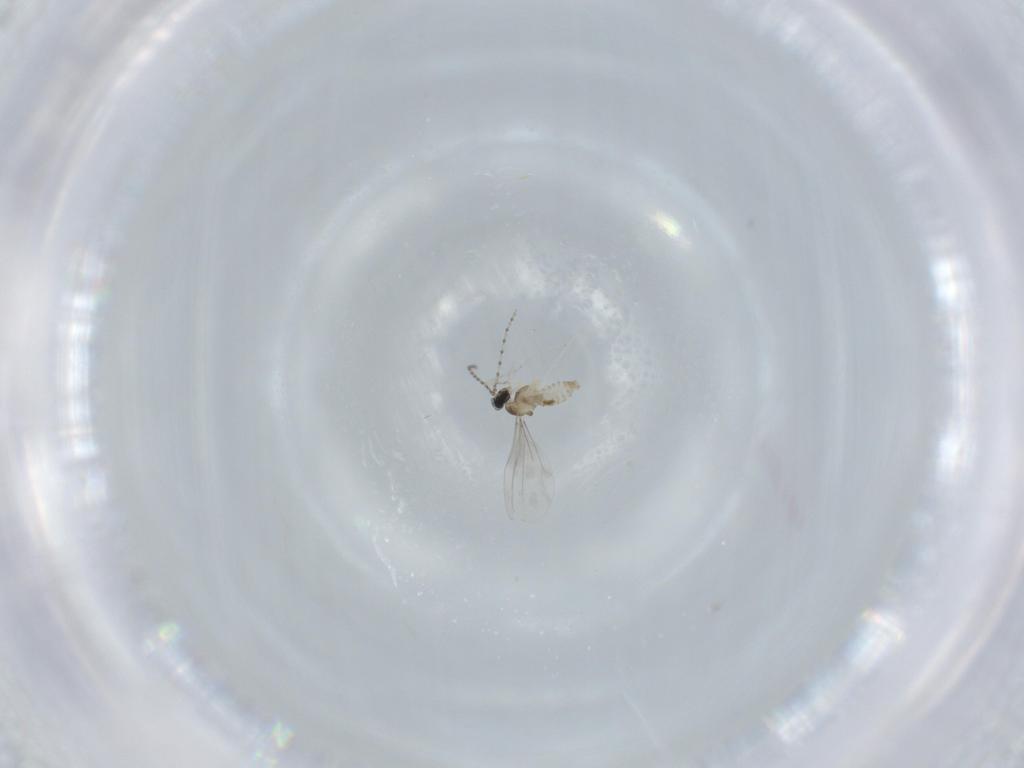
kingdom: Animalia
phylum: Arthropoda
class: Insecta
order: Diptera
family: Cecidomyiidae
